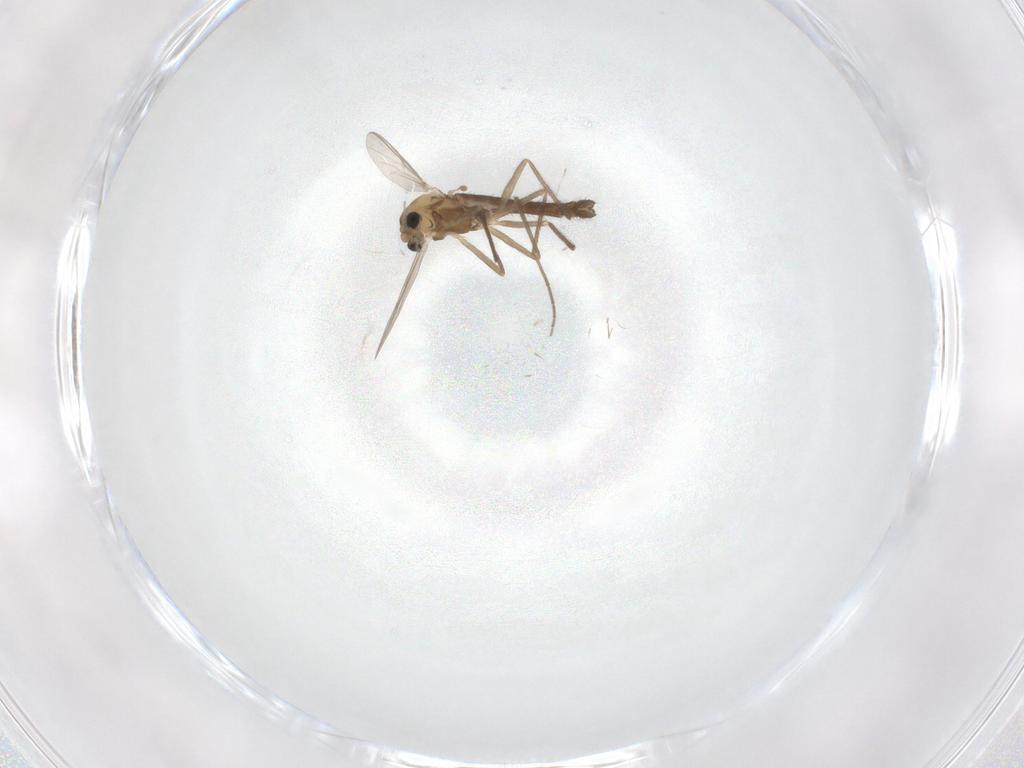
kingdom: Animalia
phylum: Arthropoda
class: Insecta
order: Diptera
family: Chironomidae
